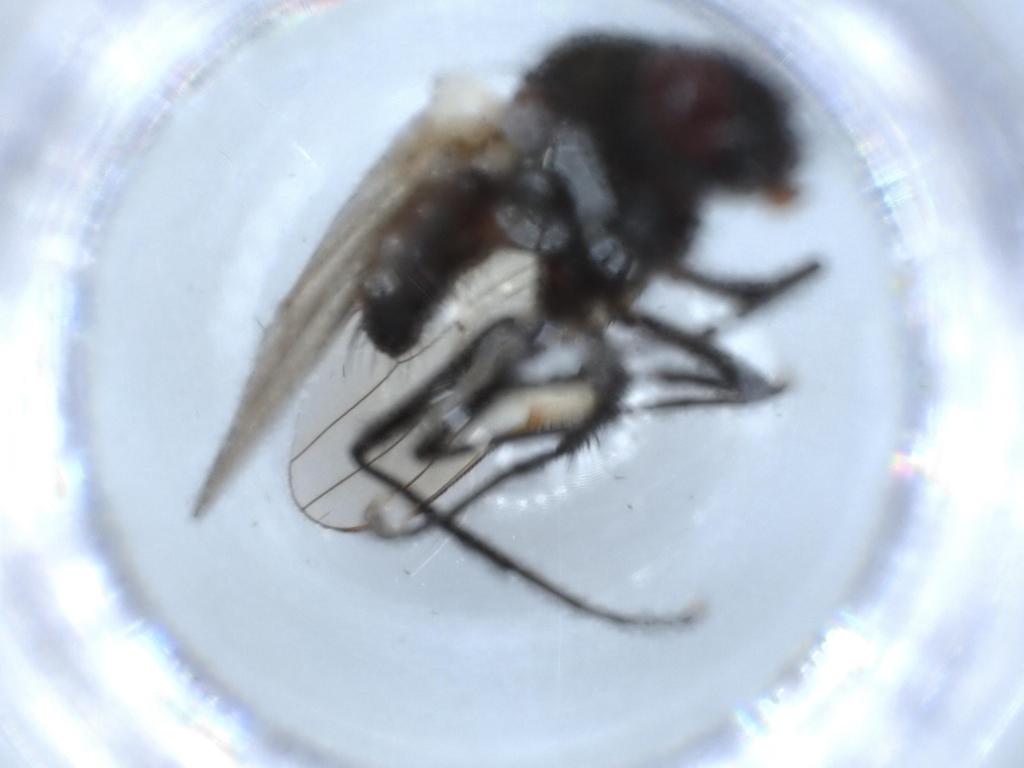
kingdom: Animalia
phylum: Arthropoda
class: Insecta
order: Diptera
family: Anthomyiidae
